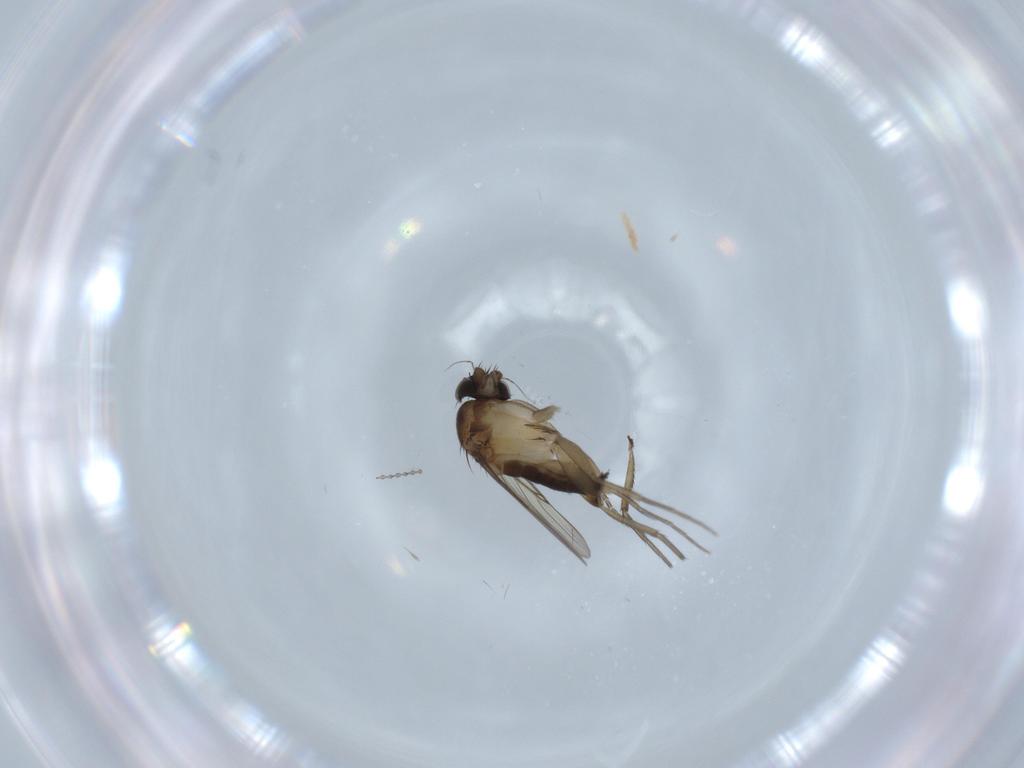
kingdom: Animalia
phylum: Arthropoda
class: Insecta
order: Diptera
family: Phoridae
